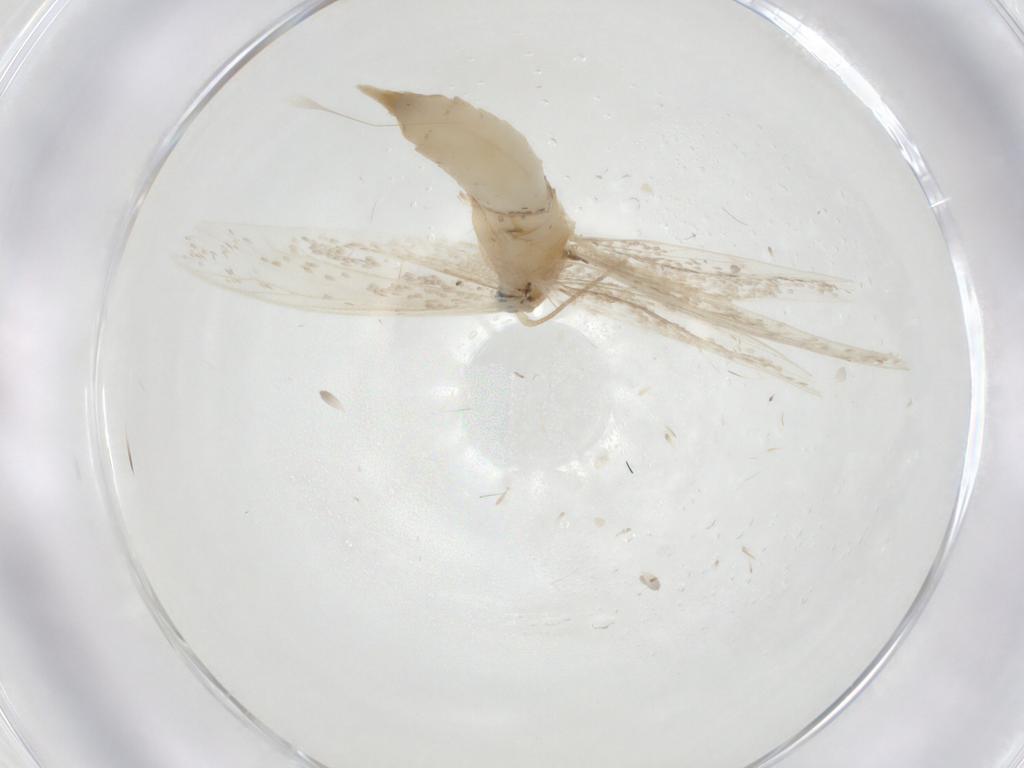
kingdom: Animalia
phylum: Arthropoda
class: Insecta
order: Lepidoptera
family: Tineidae
